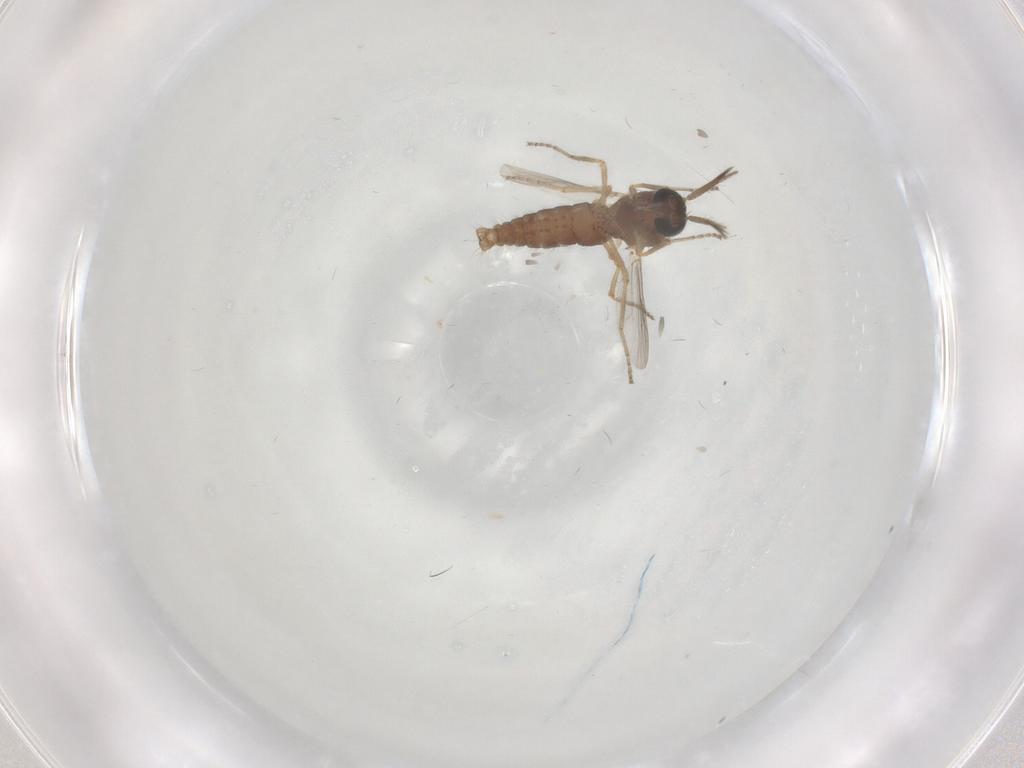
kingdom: Animalia
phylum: Arthropoda
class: Insecta
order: Diptera
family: Ceratopogonidae
